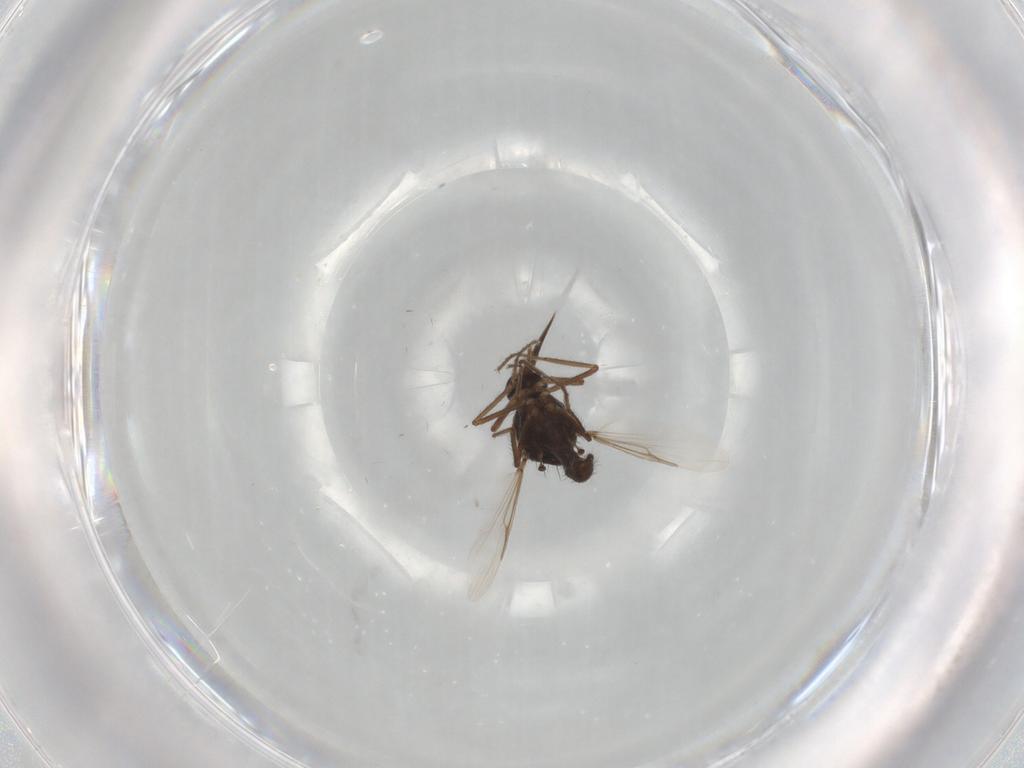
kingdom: Animalia
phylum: Arthropoda
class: Insecta
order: Diptera
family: Ceratopogonidae
